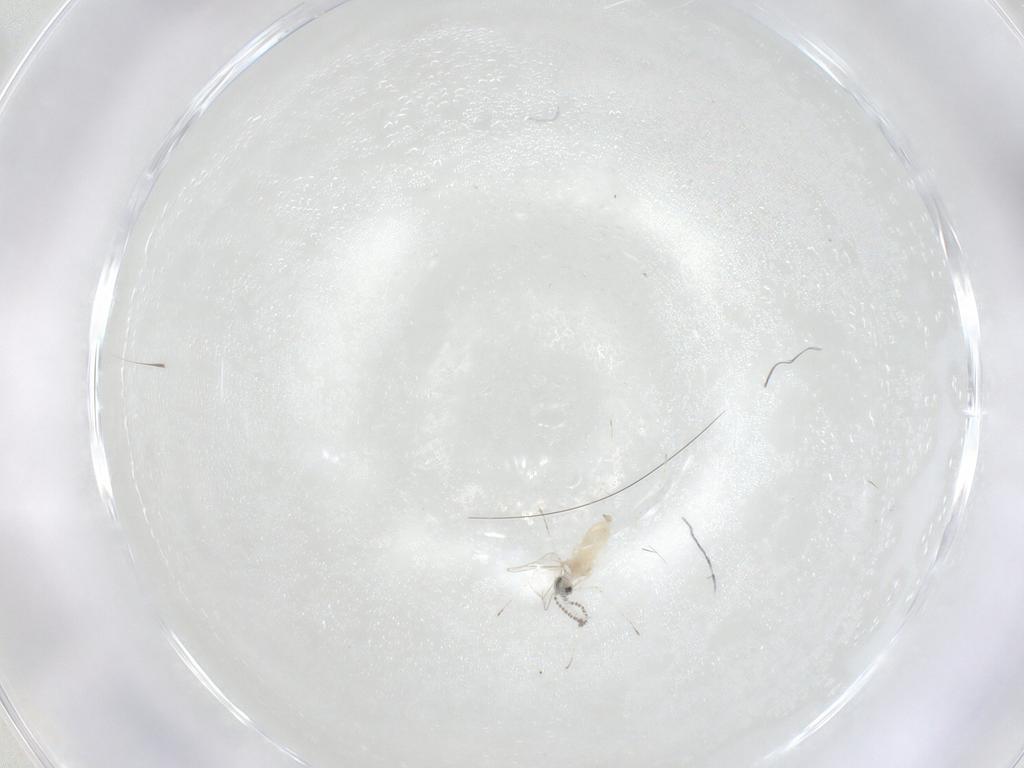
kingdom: Animalia
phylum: Arthropoda
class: Insecta
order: Diptera
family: Cecidomyiidae
